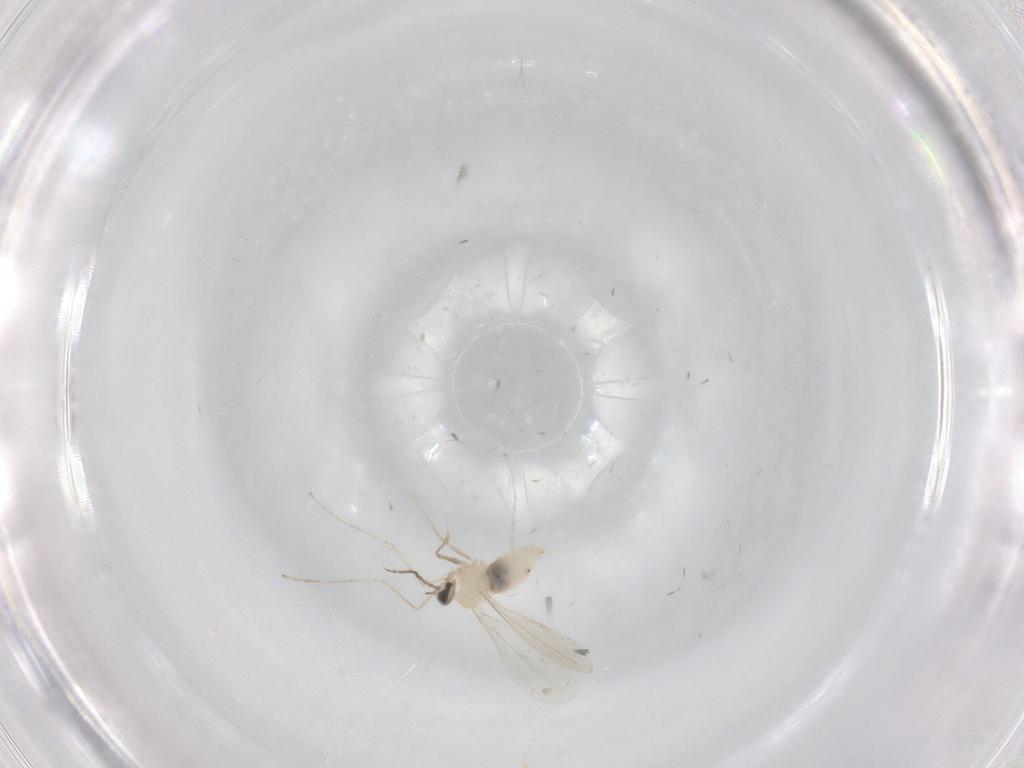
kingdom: Animalia
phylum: Arthropoda
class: Insecta
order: Diptera
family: Cecidomyiidae
